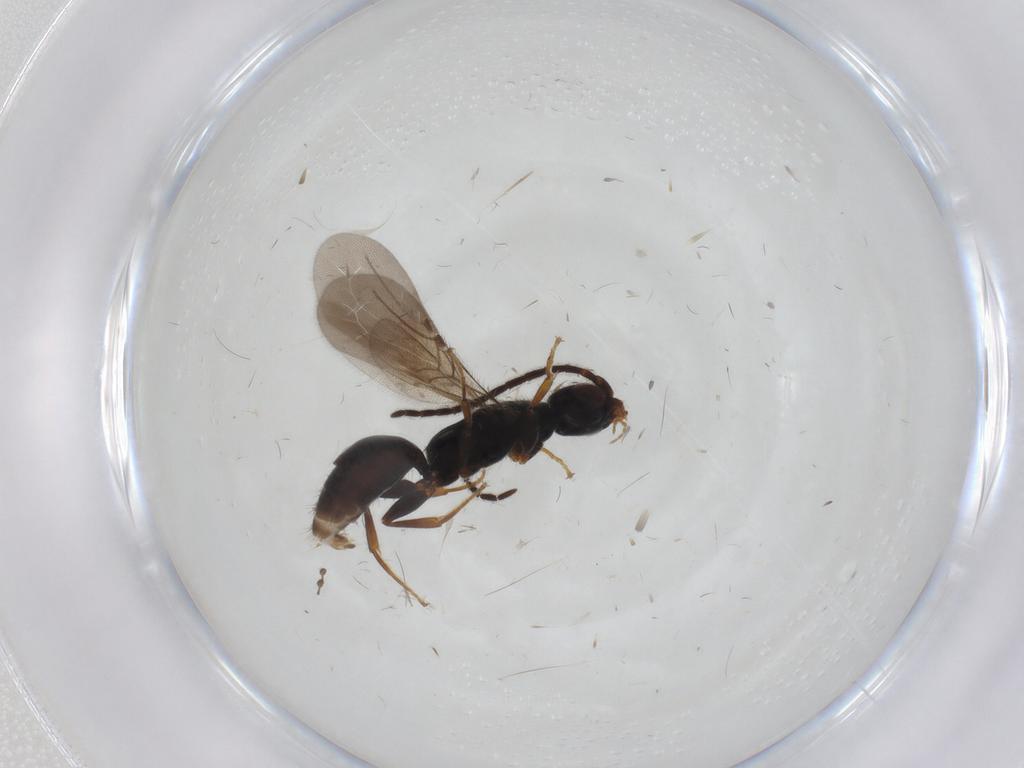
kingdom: Animalia
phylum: Arthropoda
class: Insecta
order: Hymenoptera
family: Bethylidae
